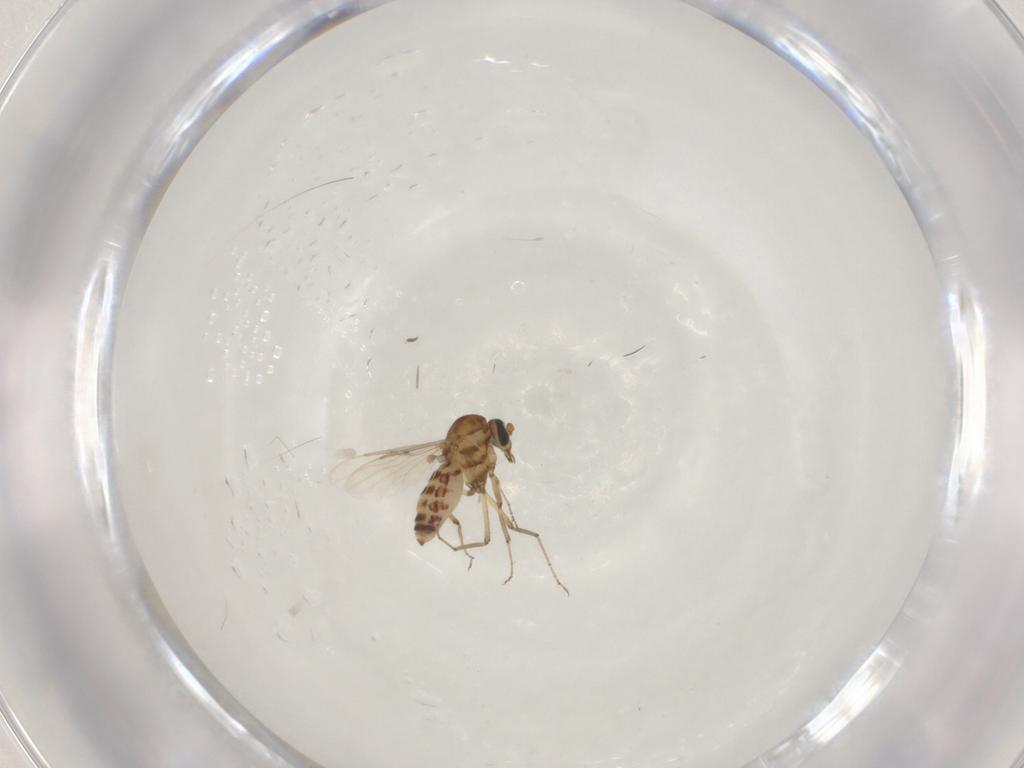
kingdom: Animalia
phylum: Arthropoda
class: Insecta
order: Diptera
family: Ceratopogonidae
